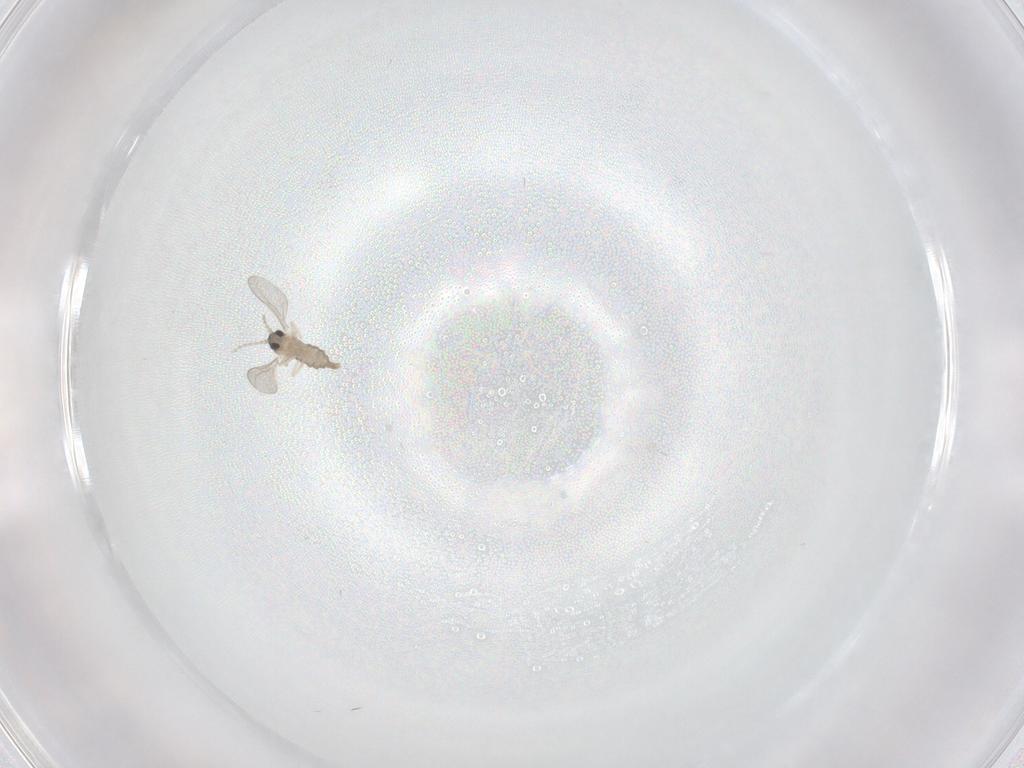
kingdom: Animalia
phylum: Arthropoda
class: Insecta
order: Diptera
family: Cecidomyiidae
